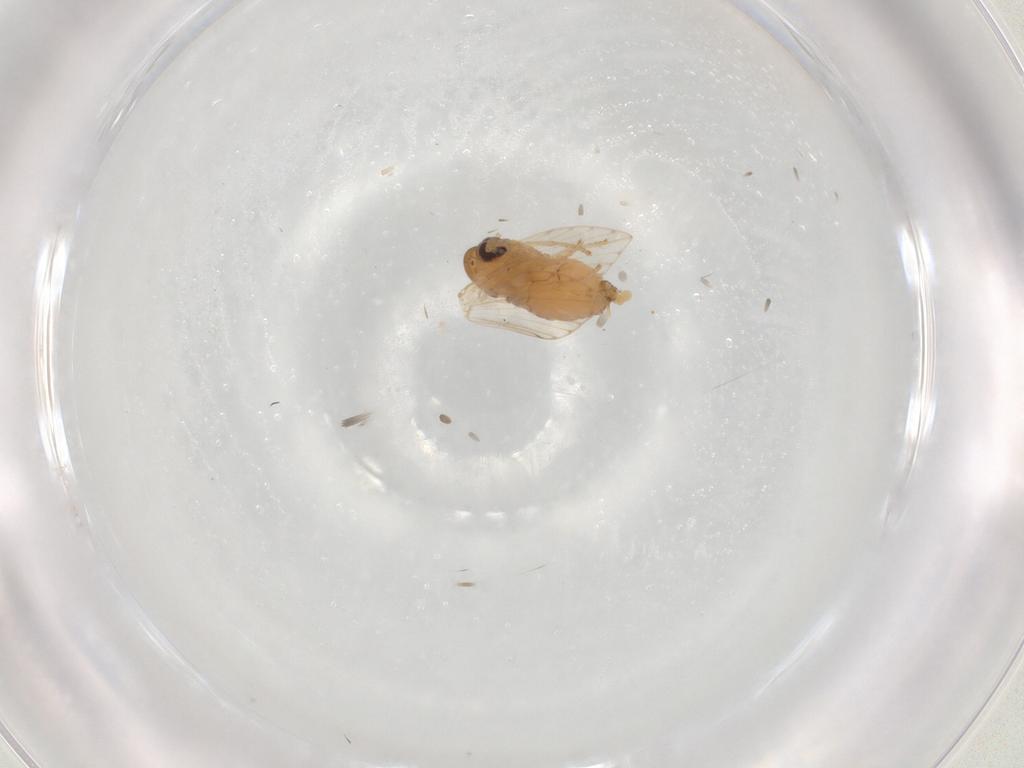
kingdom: Animalia
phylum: Arthropoda
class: Insecta
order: Diptera
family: Psychodidae
